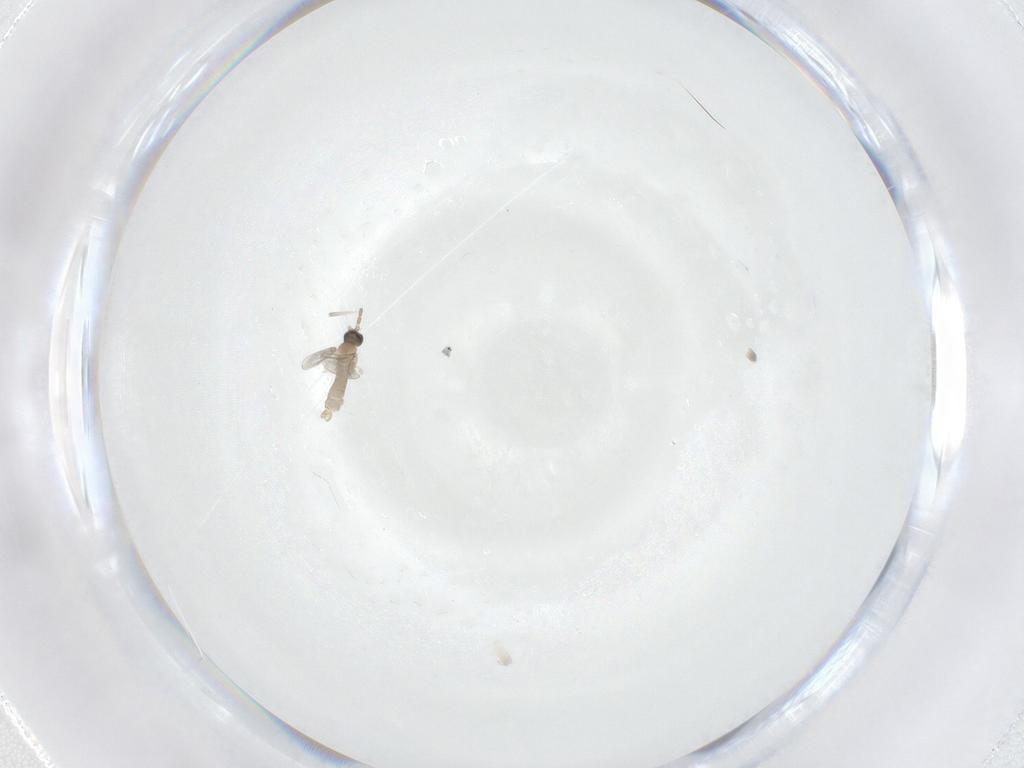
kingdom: Animalia
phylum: Arthropoda
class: Insecta
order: Diptera
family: Cecidomyiidae
